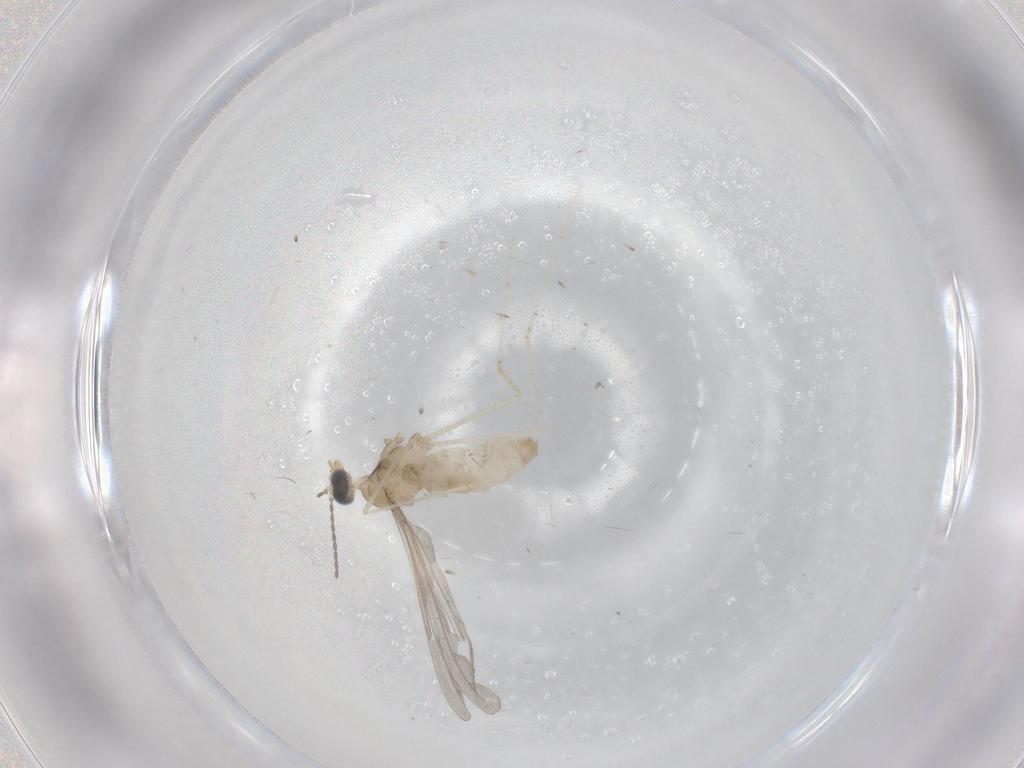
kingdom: Animalia
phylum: Arthropoda
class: Insecta
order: Diptera
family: Cecidomyiidae
